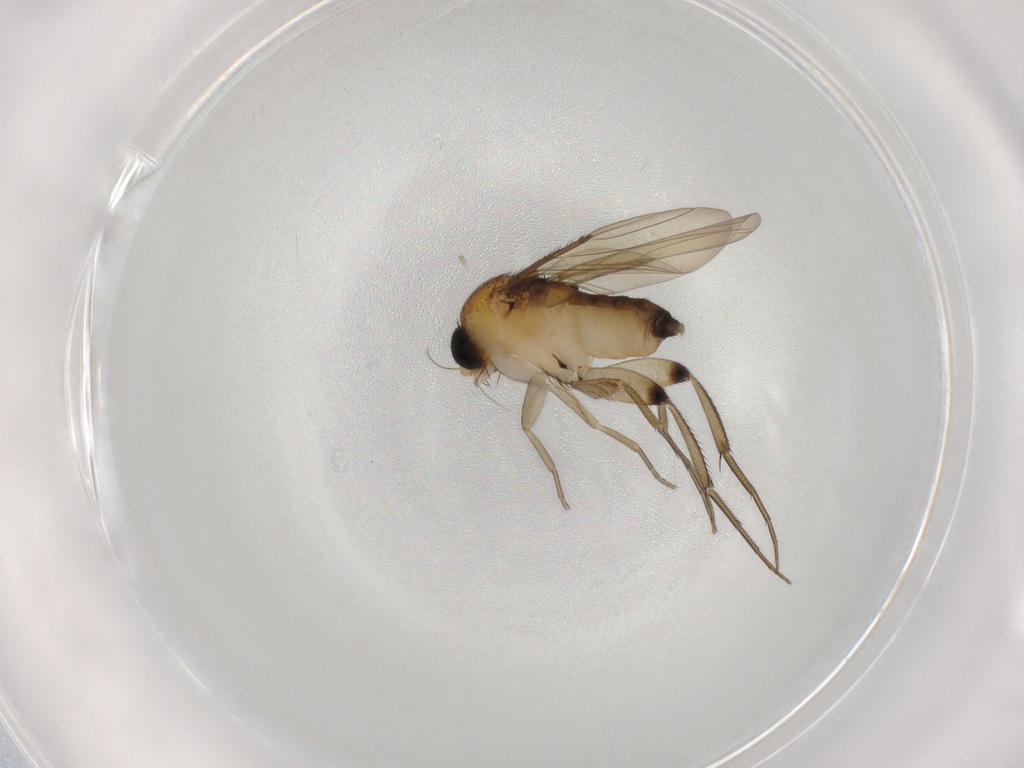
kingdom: Animalia
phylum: Arthropoda
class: Insecta
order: Diptera
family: Phoridae
